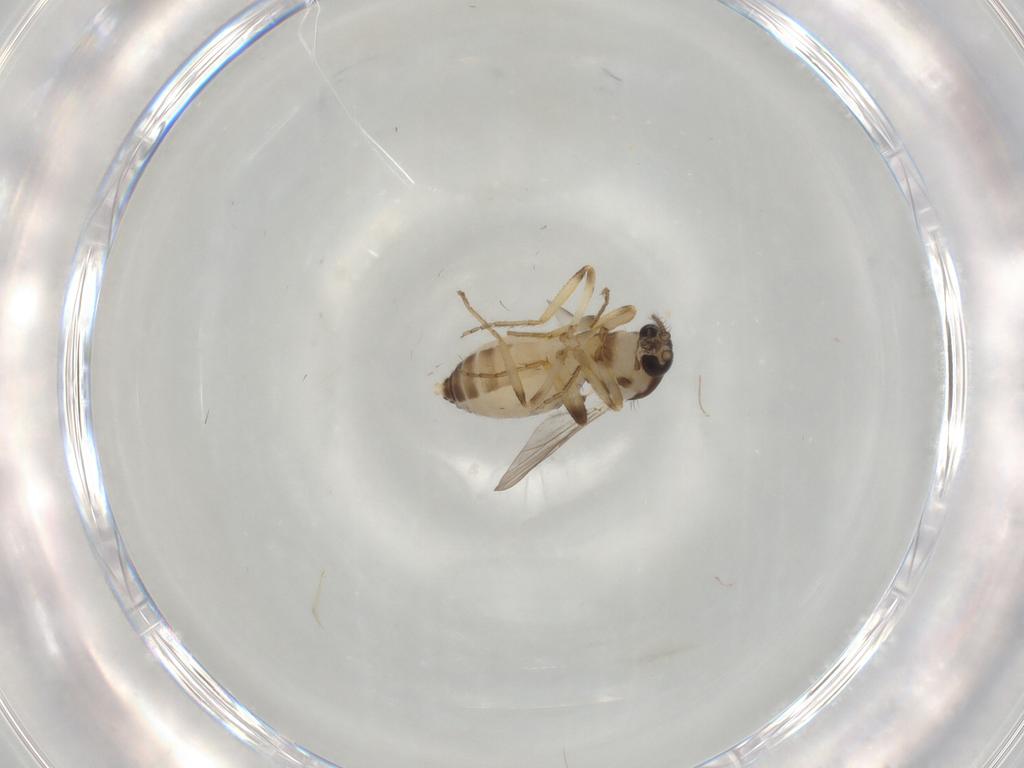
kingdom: Animalia
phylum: Arthropoda
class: Insecta
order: Diptera
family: Ceratopogonidae
